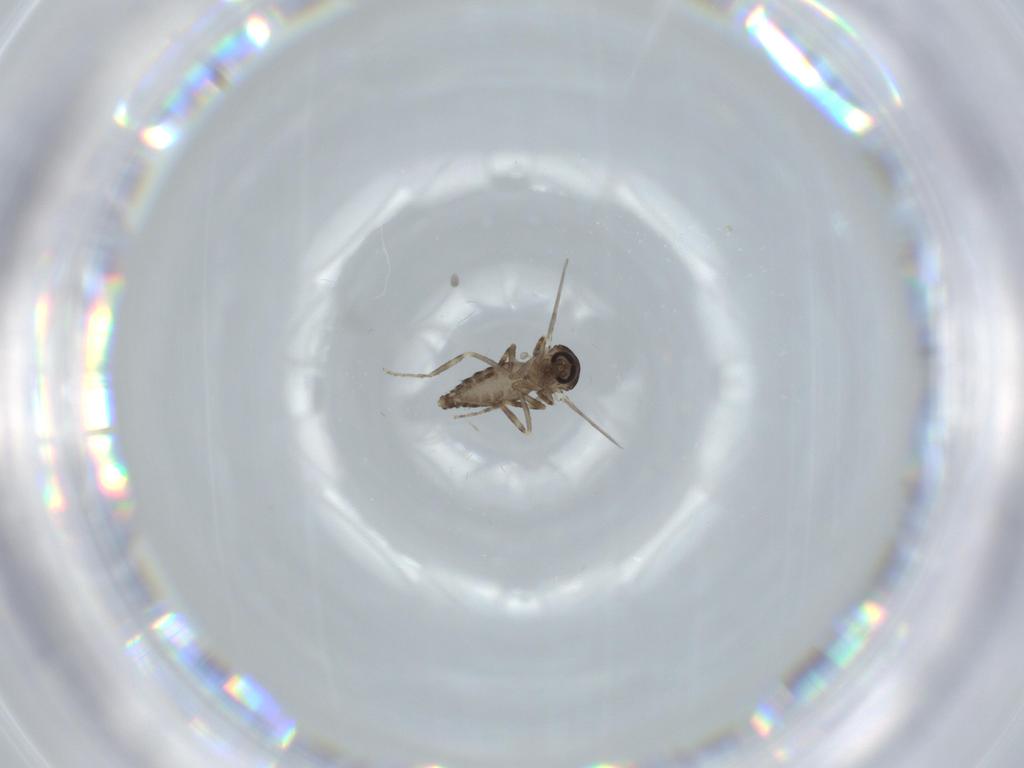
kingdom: Animalia
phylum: Arthropoda
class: Insecta
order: Diptera
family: Ceratopogonidae
